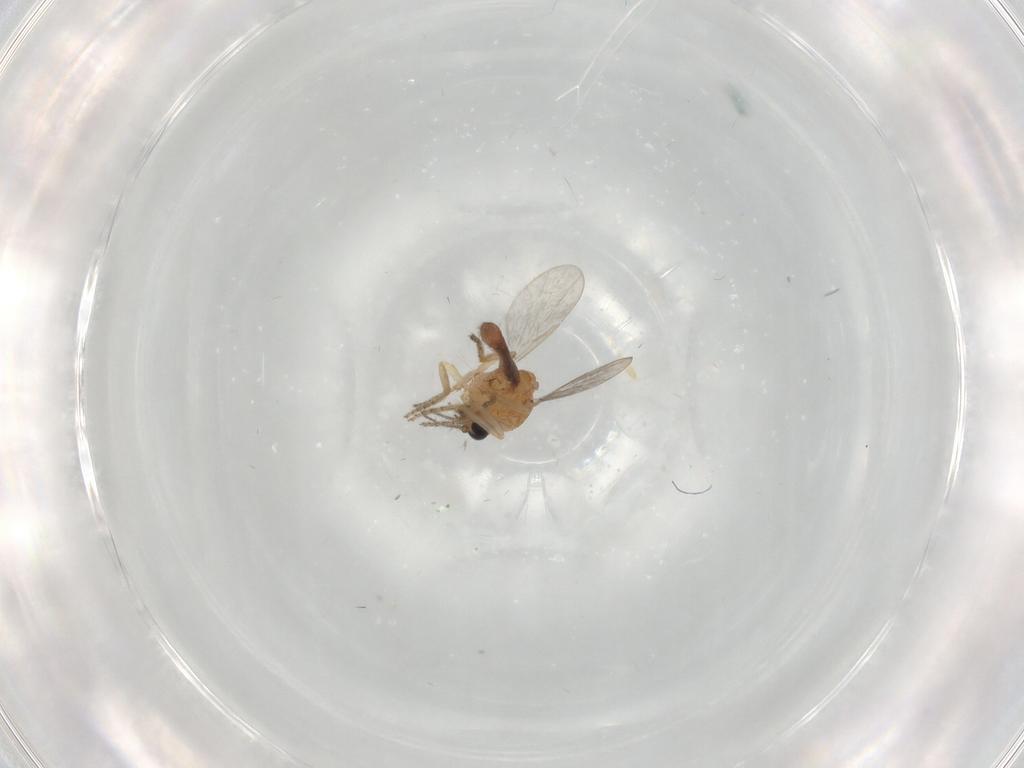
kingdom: Animalia
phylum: Arthropoda
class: Insecta
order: Diptera
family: Ceratopogonidae
